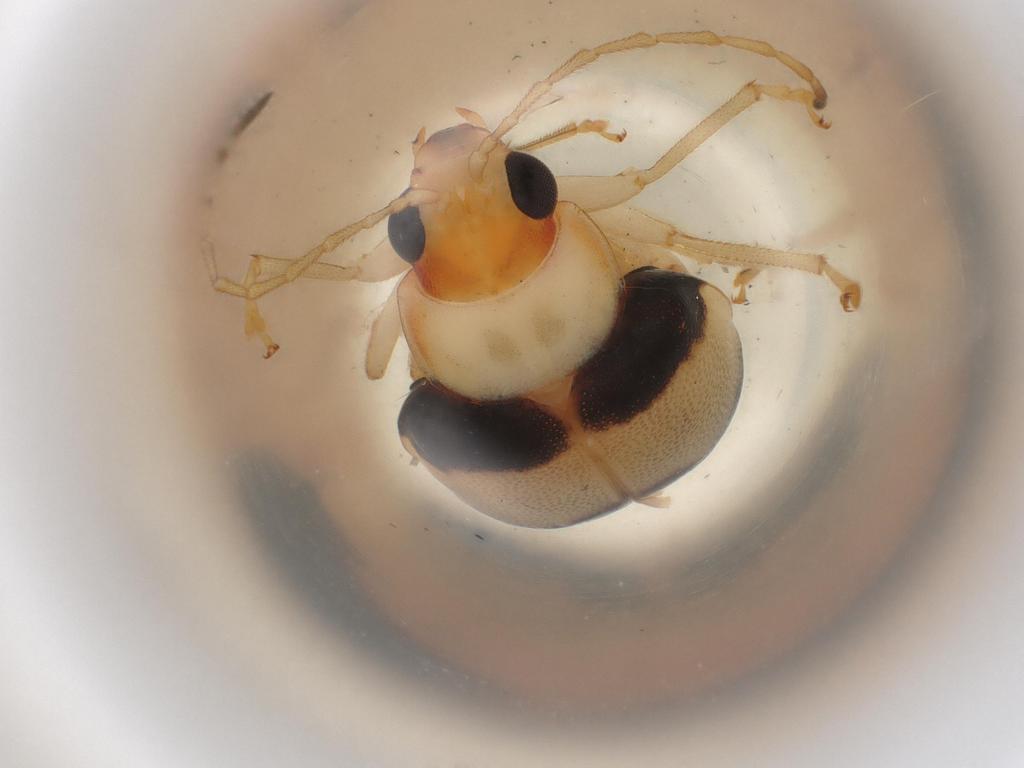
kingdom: Animalia
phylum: Arthropoda
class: Insecta
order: Coleoptera
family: Chrysomelidae
